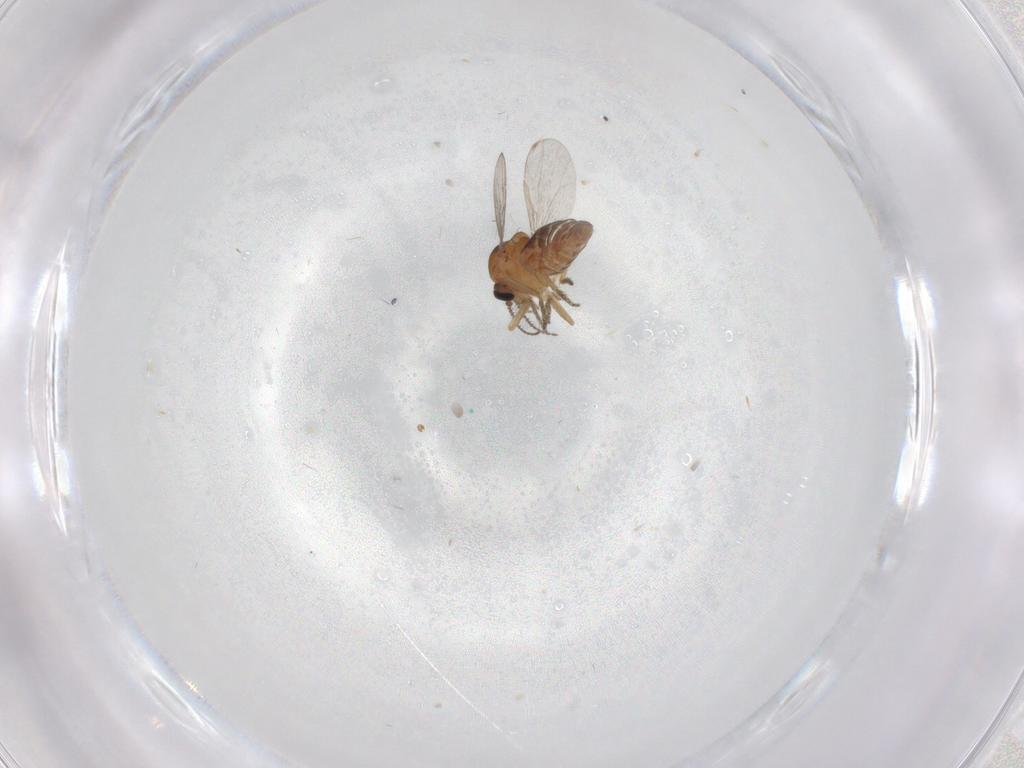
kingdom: Animalia
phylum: Arthropoda
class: Insecta
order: Diptera
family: Ceratopogonidae
